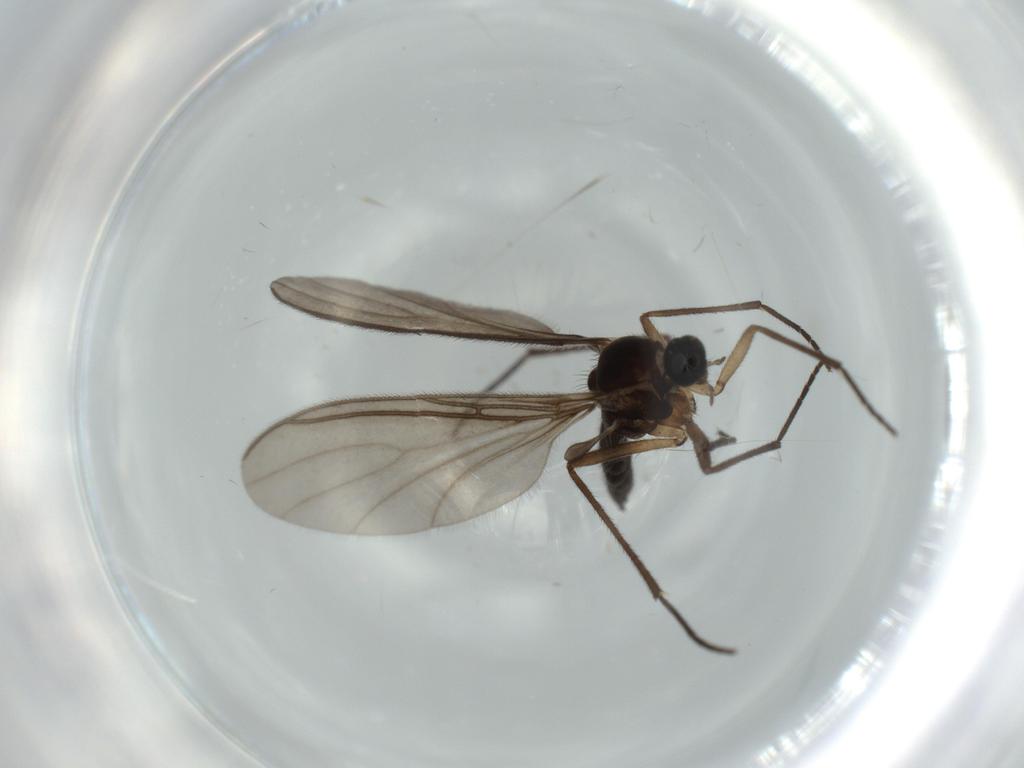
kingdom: Animalia
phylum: Arthropoda
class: Insecta
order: Diptera
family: Sciaridae
